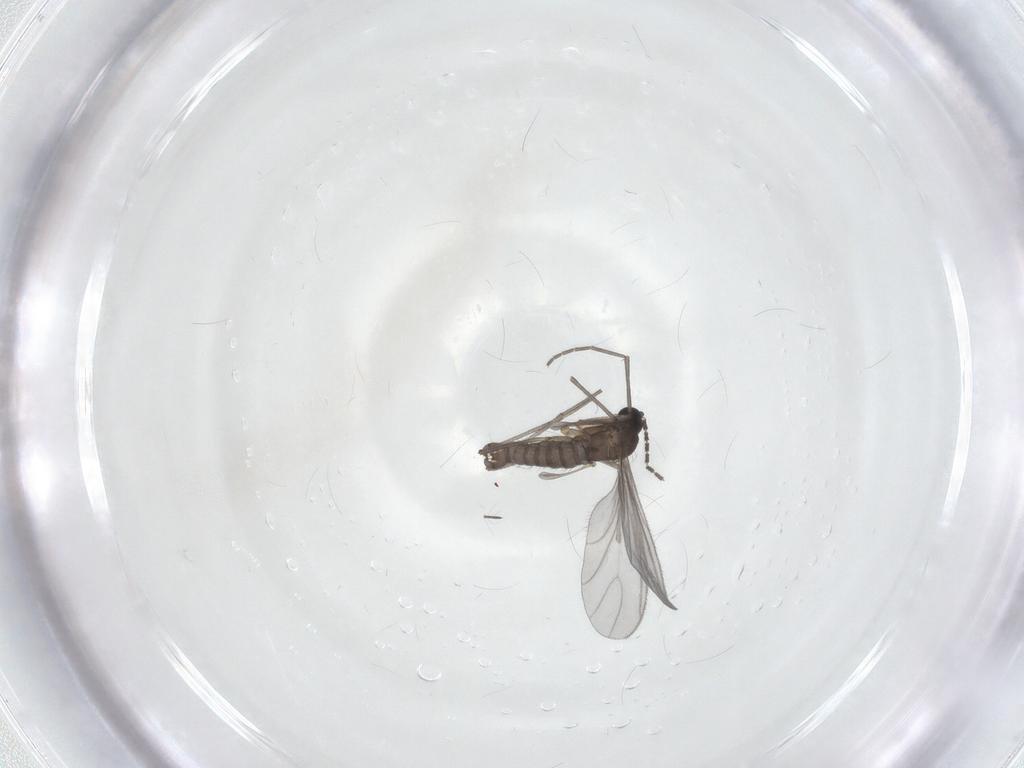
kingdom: Animalia
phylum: Arthropoda
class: Insecta
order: Diptera
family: Sciaridae
